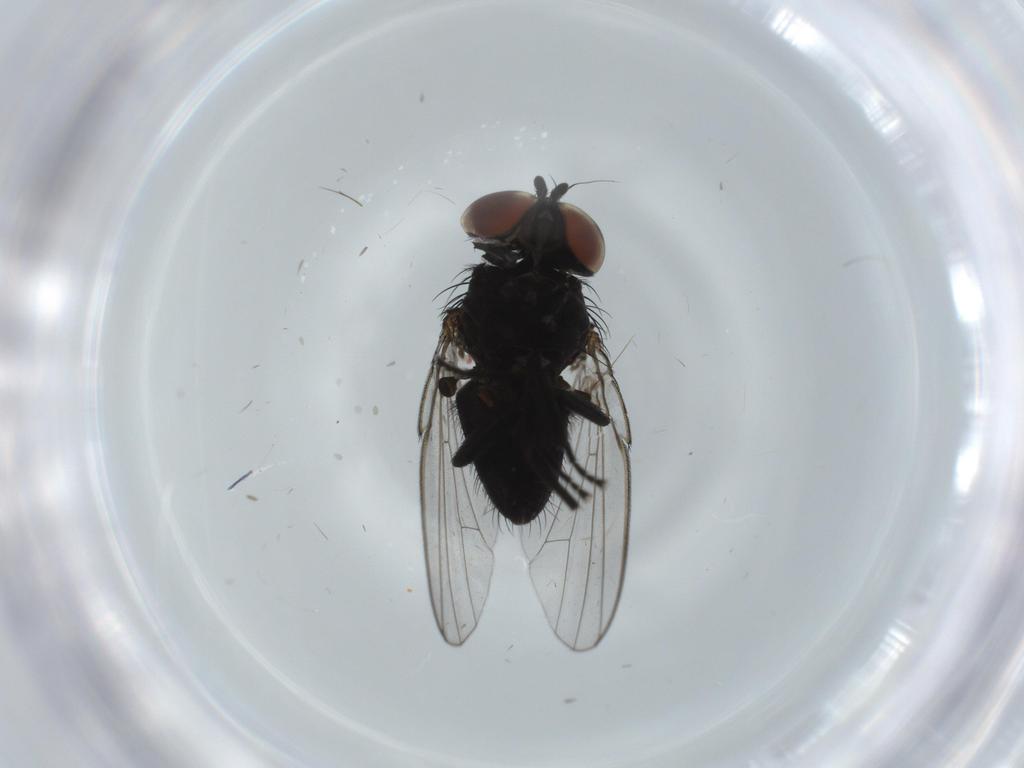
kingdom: Animalia
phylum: Arthropoda
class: Insecta
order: Diptera
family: Milichiidae
